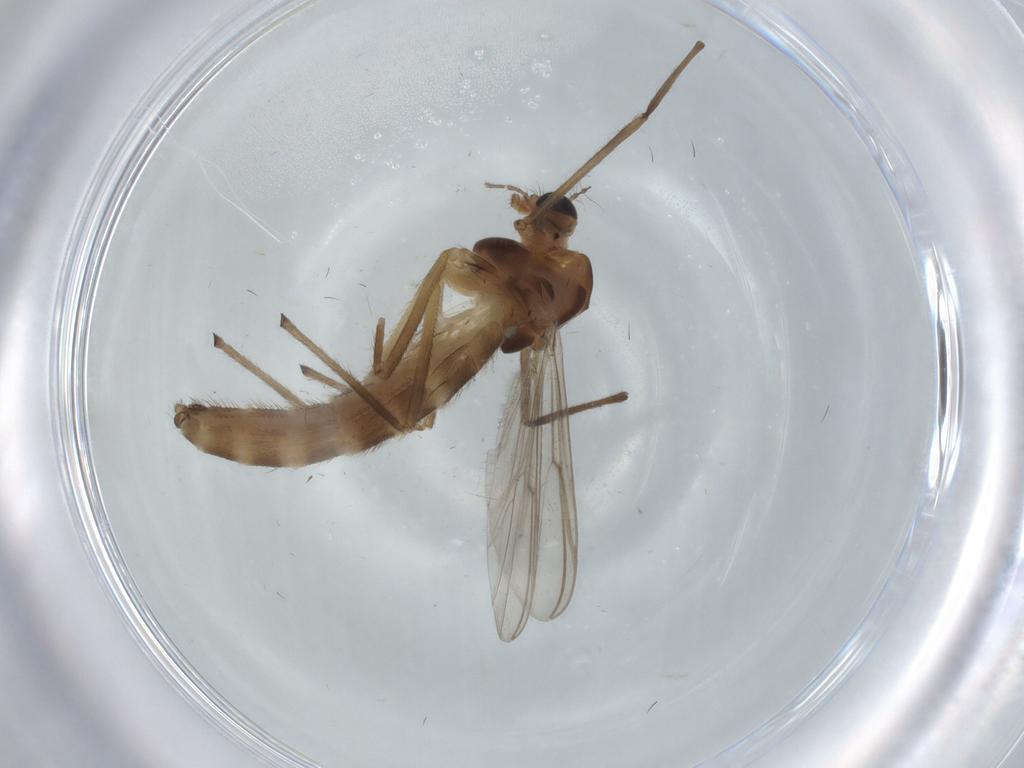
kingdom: Animalia
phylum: Arthropoda
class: Insecta
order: Diptera
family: Chironomidae
